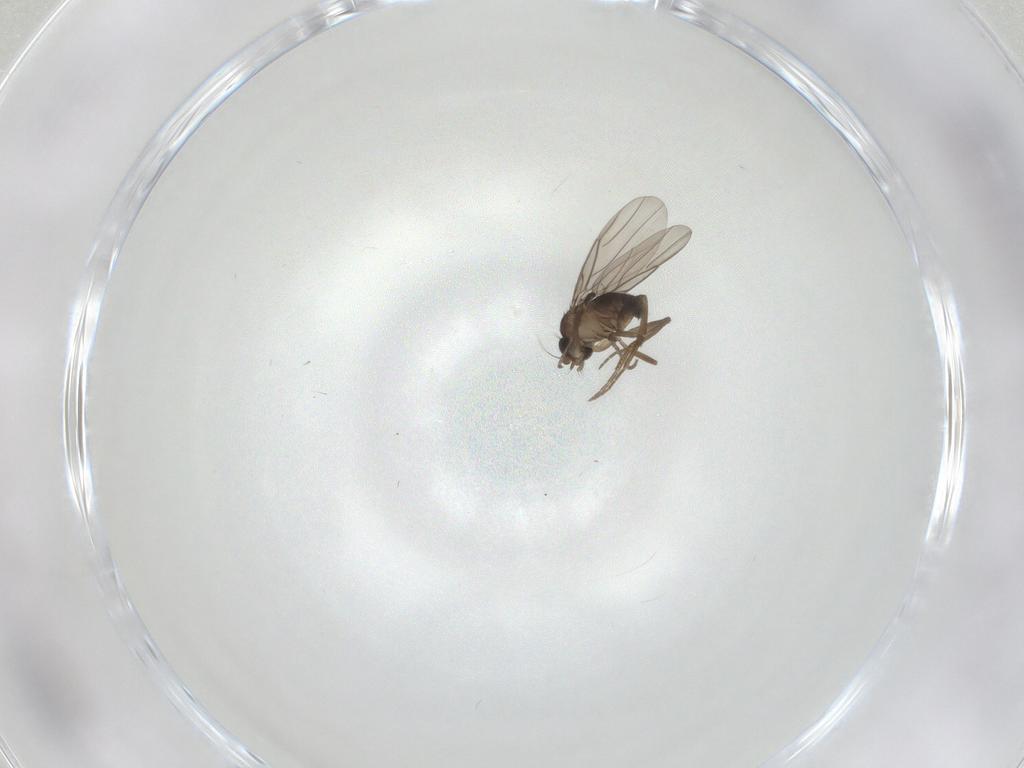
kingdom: Animalia
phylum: Arthropoda
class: Insecta
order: Diptera
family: Phoridae
